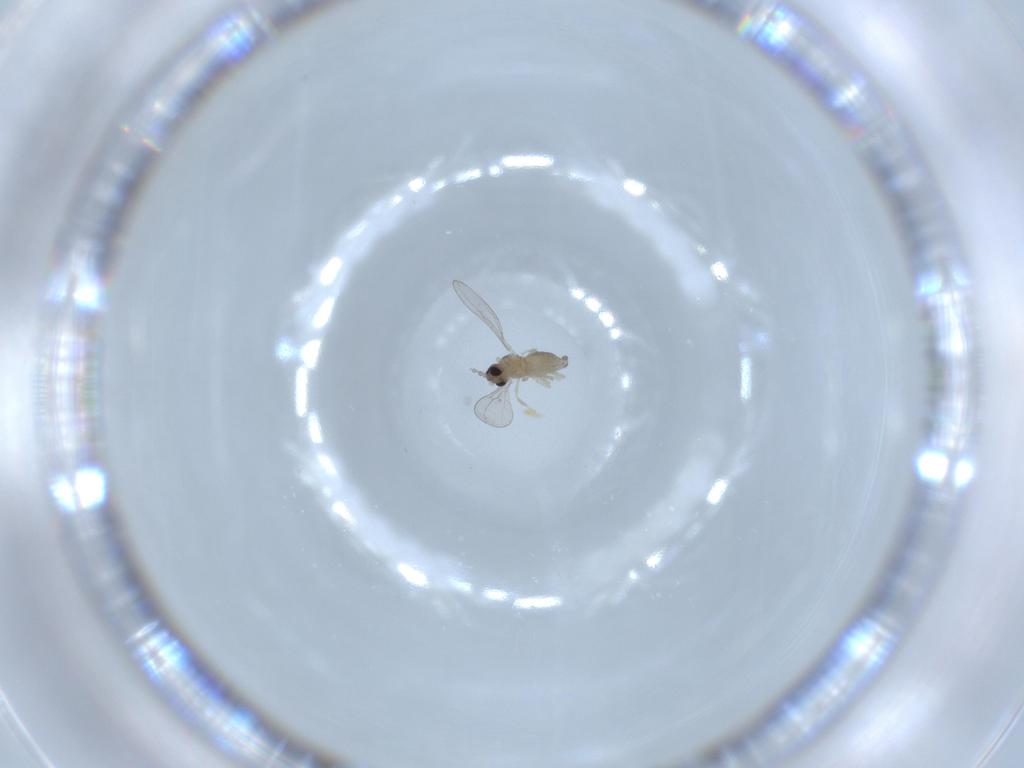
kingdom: Animalia
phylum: Arthropoda
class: Insecta
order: Diptera
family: Cecidomyiidae
